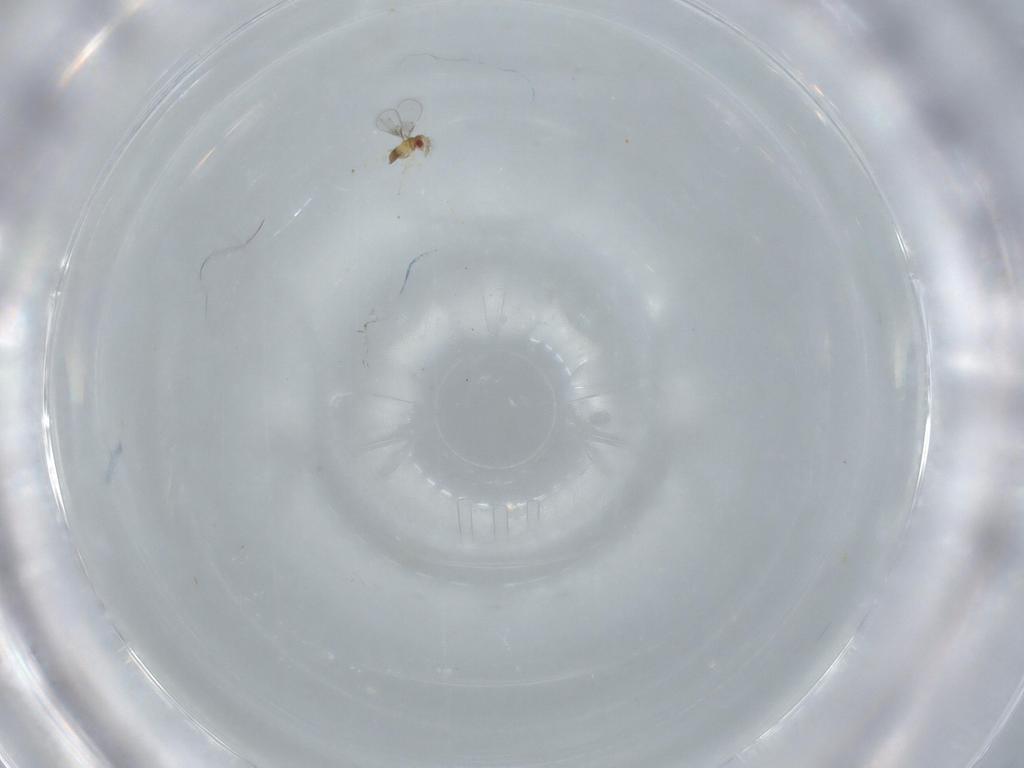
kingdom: Animalia
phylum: Arthropoda
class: Insecta
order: Hymenoptera
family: Trichogrammatidae
